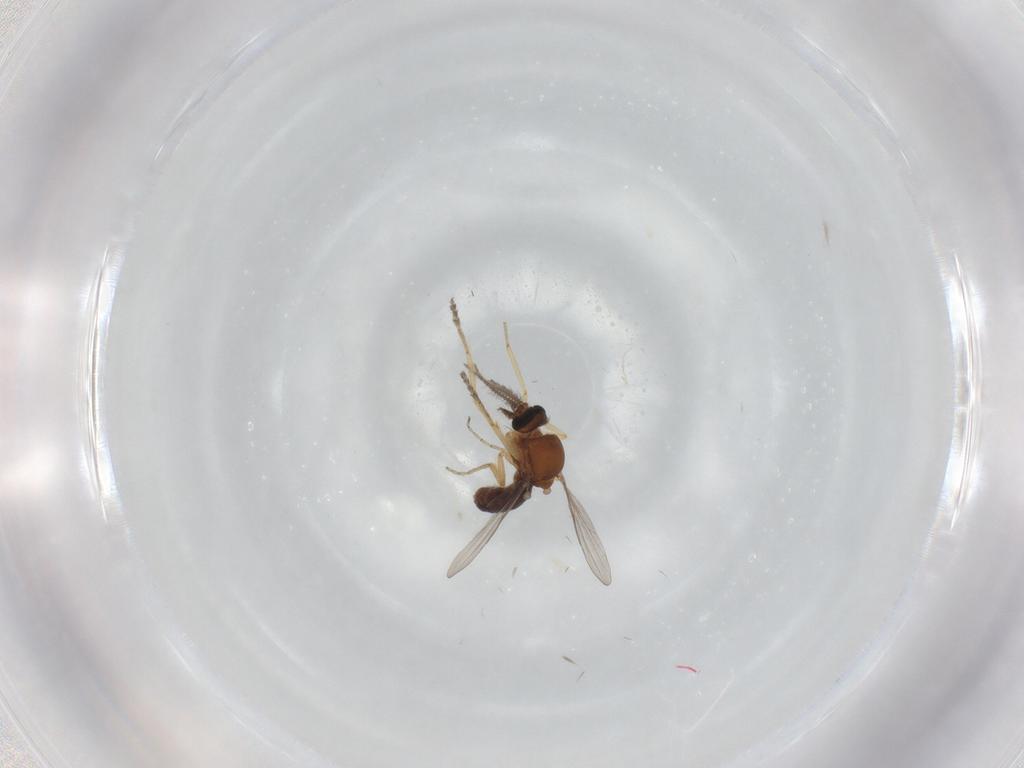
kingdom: Animalia
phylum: Arthropoda
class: Insecta
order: Diptera
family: Ceratopogonidae
